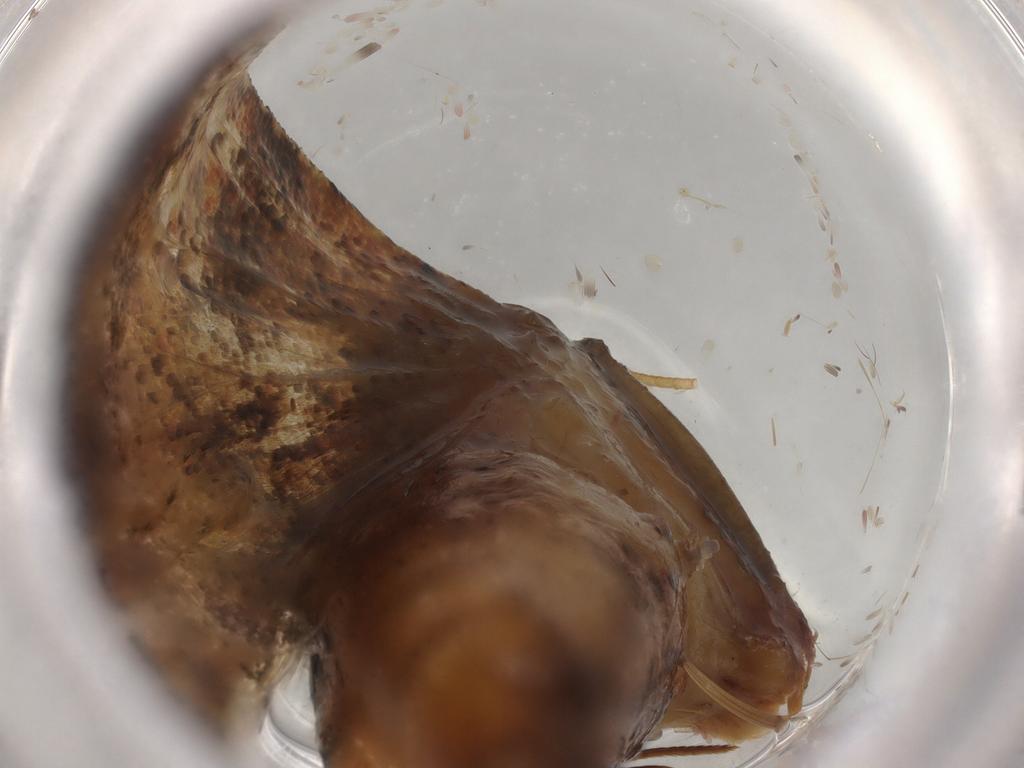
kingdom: Animalia
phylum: Arthropoda
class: Insecta
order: Lepidoptera
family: Pyralidae
